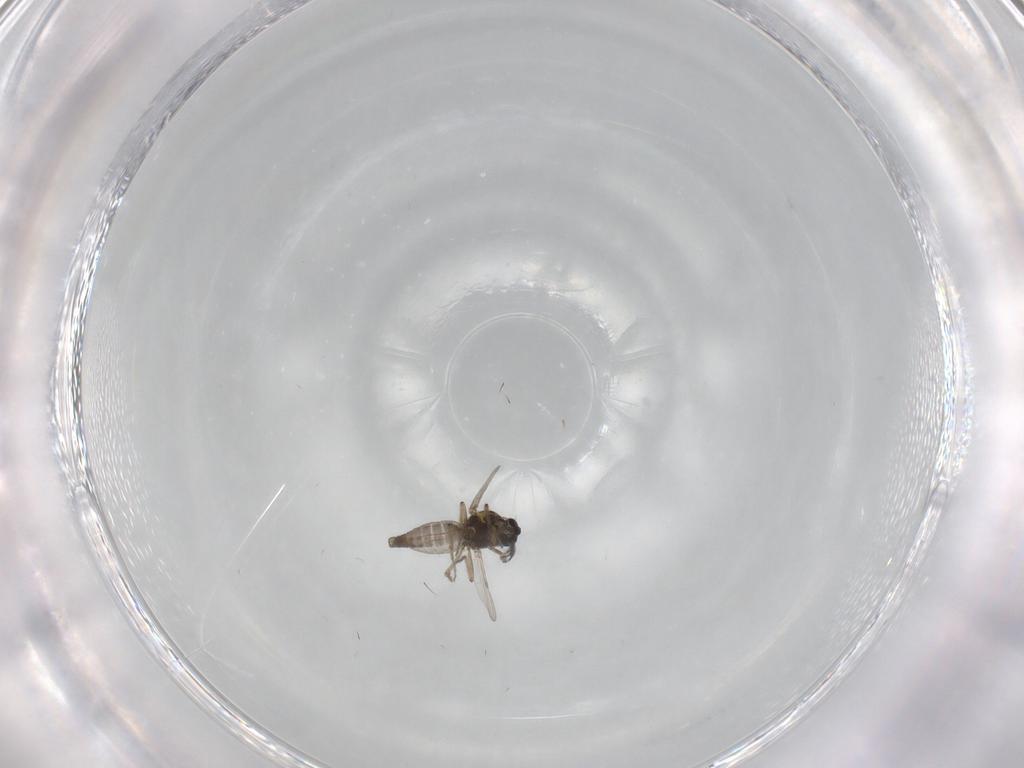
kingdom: Animalia
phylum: Arthropoda
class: Insecta
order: Diptera
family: Ceratopogonidae
